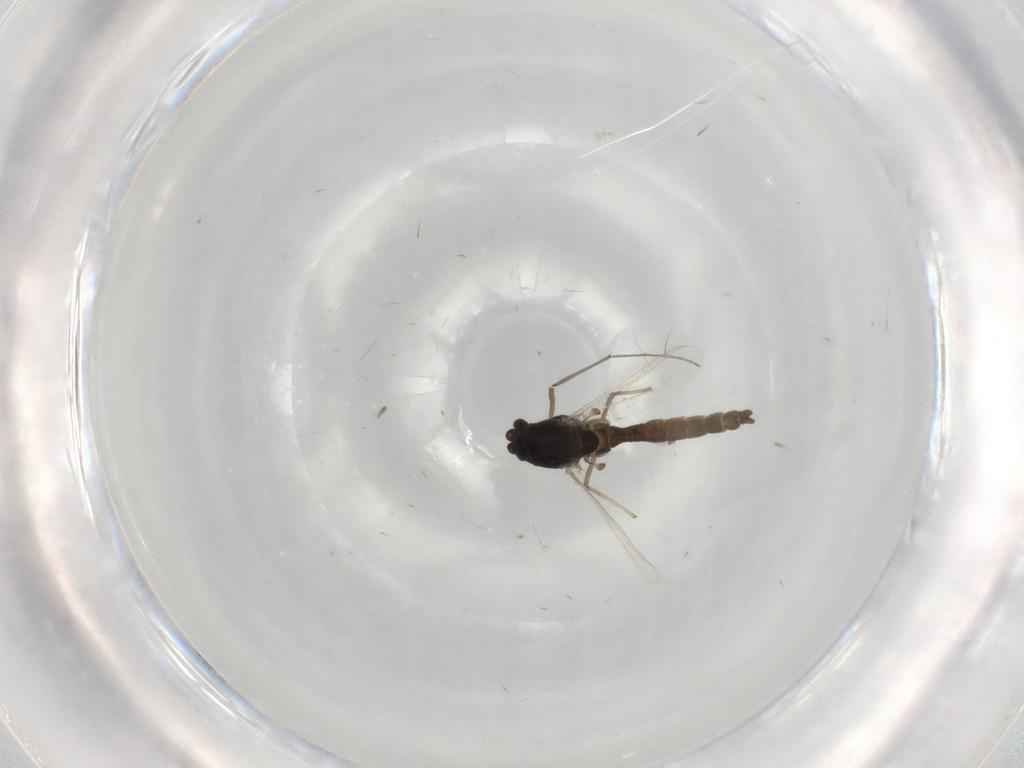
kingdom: Animalia
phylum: Arthropoda
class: Insecta
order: Diptera
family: Chironomidae
